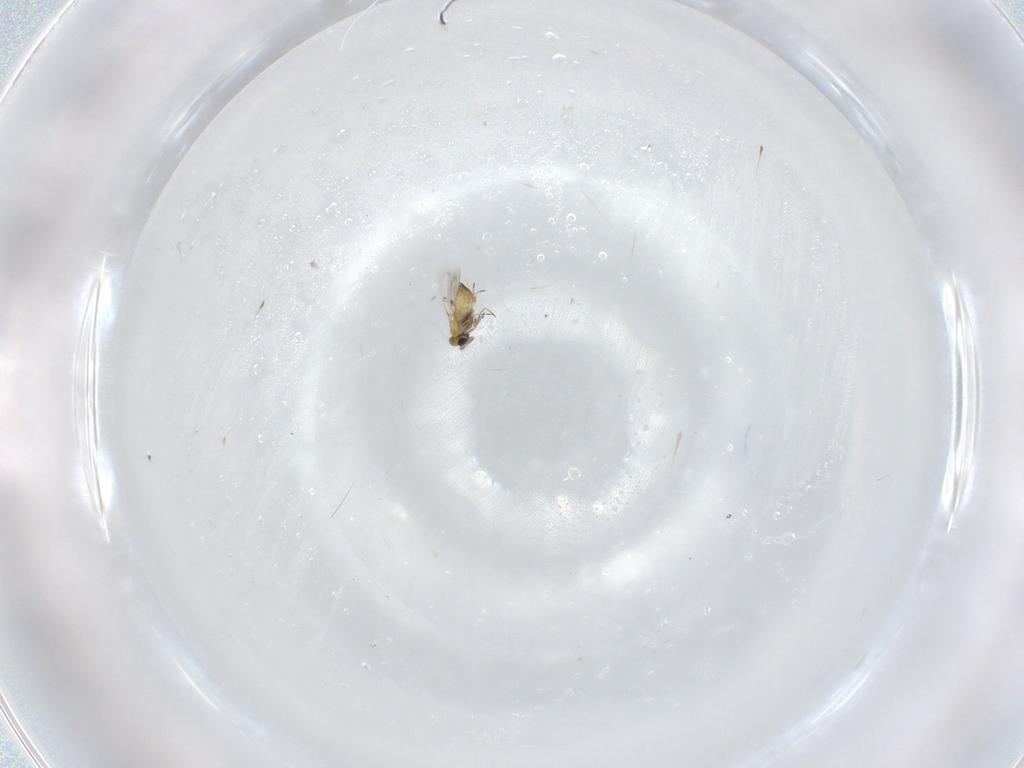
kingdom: Animalia
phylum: Arthropoda
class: Insecta
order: Hymenoptera
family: Trichogrammatidae
